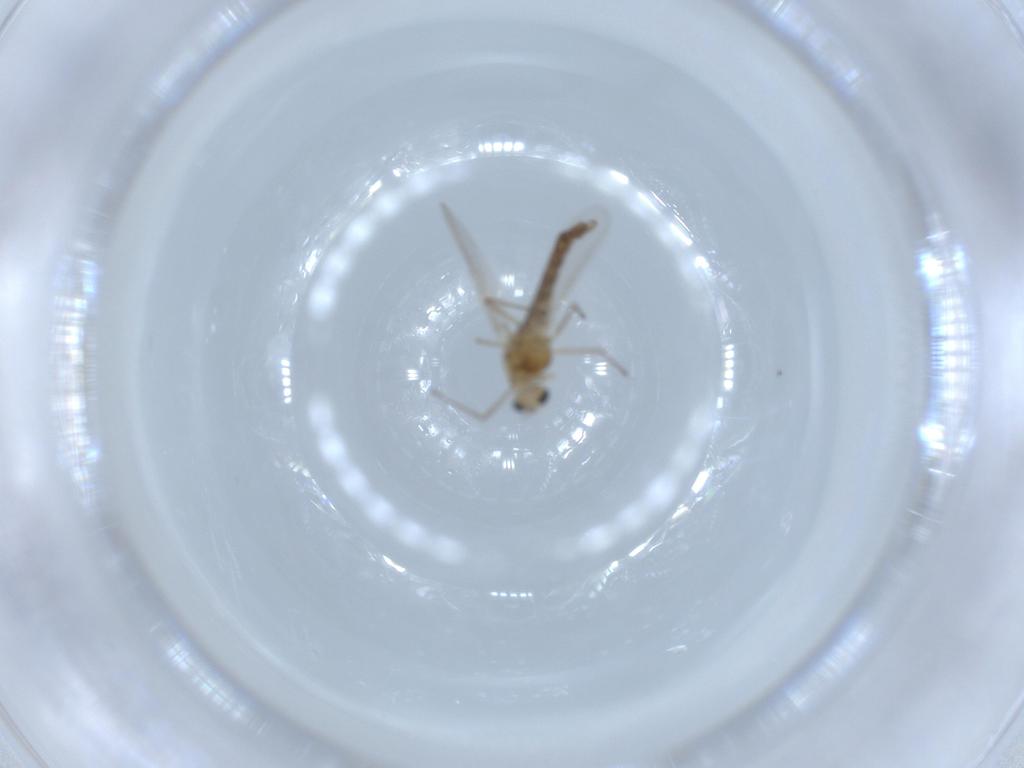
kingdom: Animalia
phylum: Arthropoda
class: Insecta
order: Diptera
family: Chironomidae
